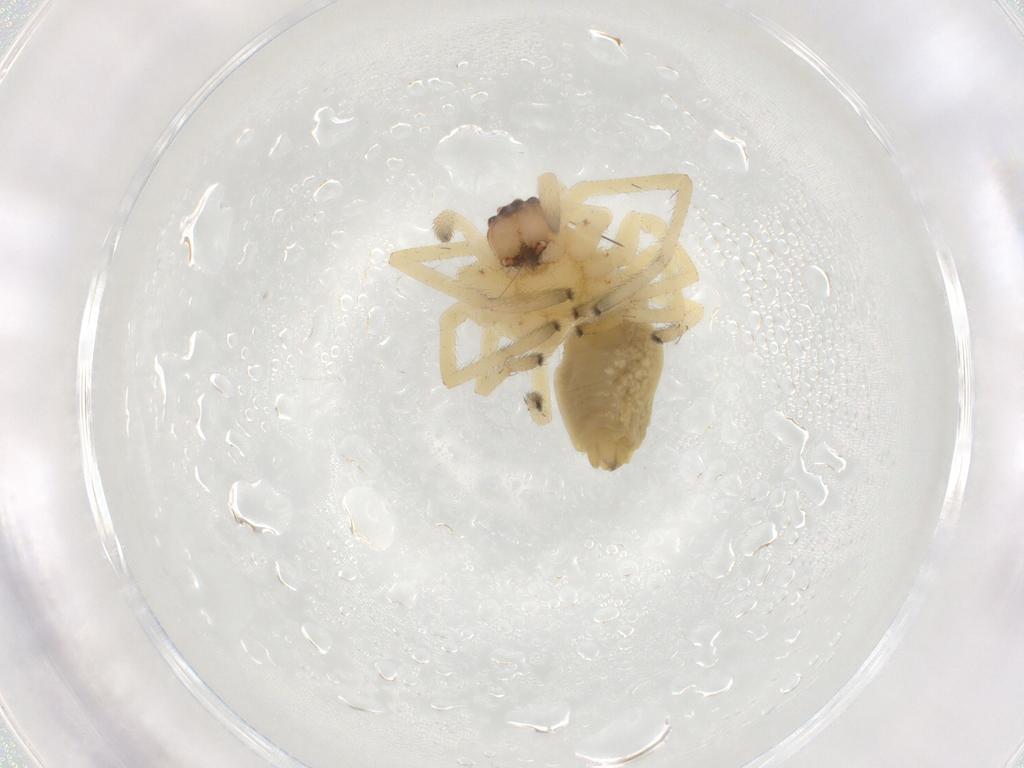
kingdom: Animalia
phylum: Arthropoda
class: Arachnida
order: Araneae
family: Cheiracanthiidae
